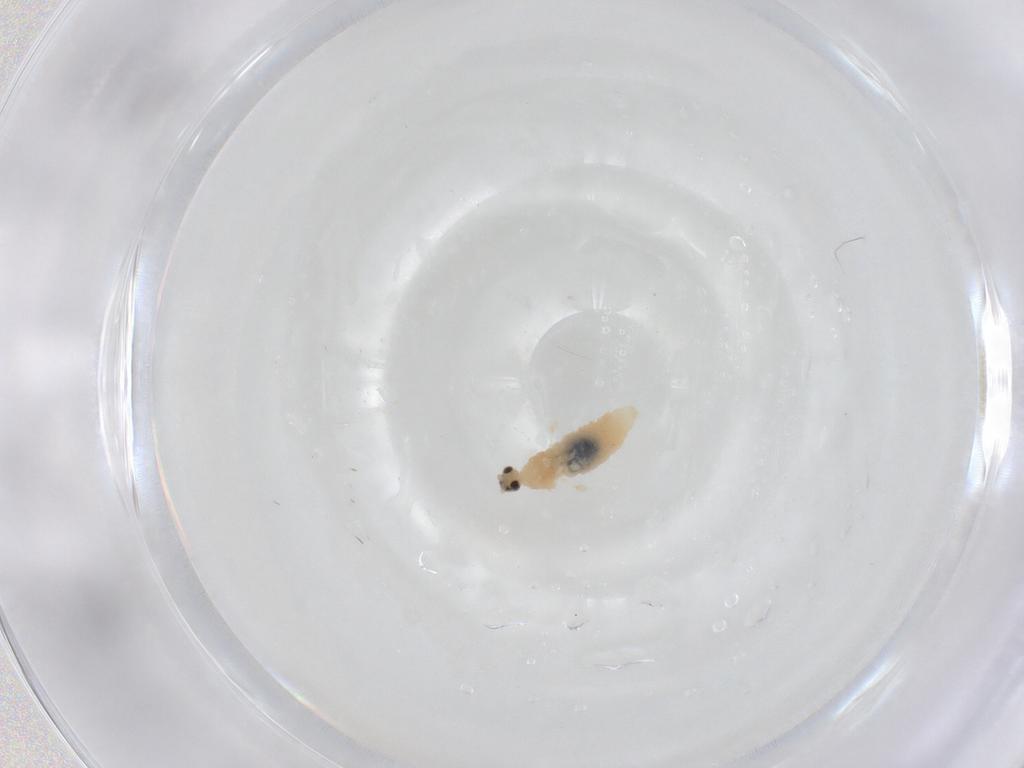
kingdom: Animalia
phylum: Arthropoda
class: Insecta
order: Diptera
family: Cecidomyiidae
